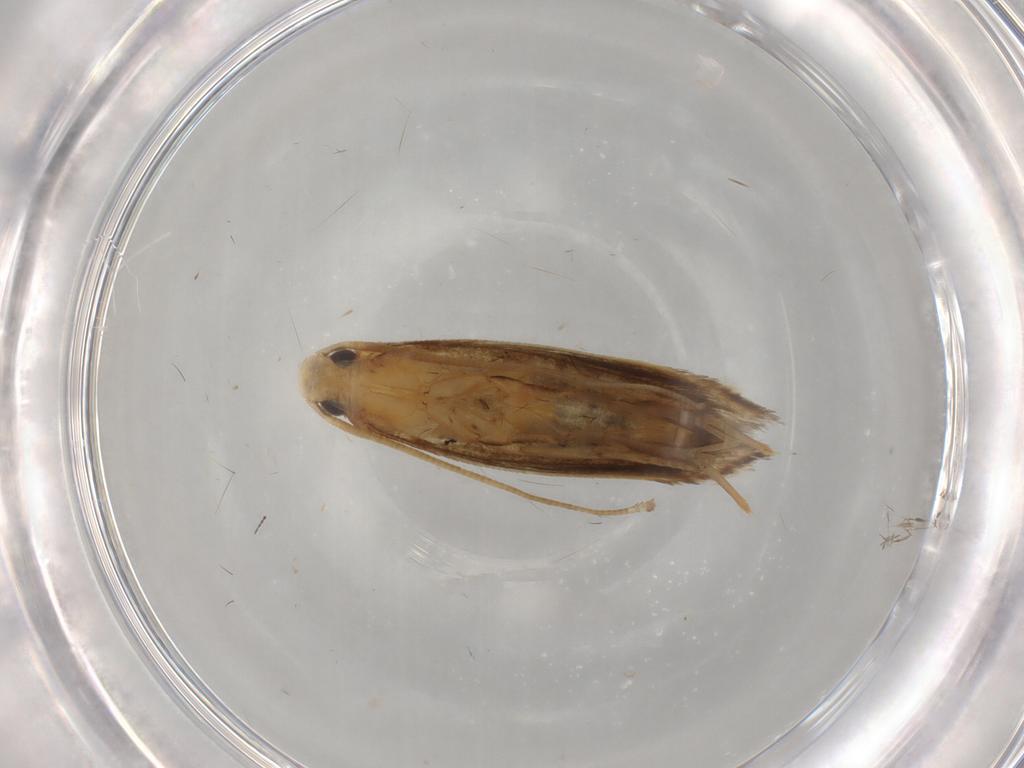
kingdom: Animalia
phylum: Arthropoda
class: Insecta
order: Lepidoptera
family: Tineidae
